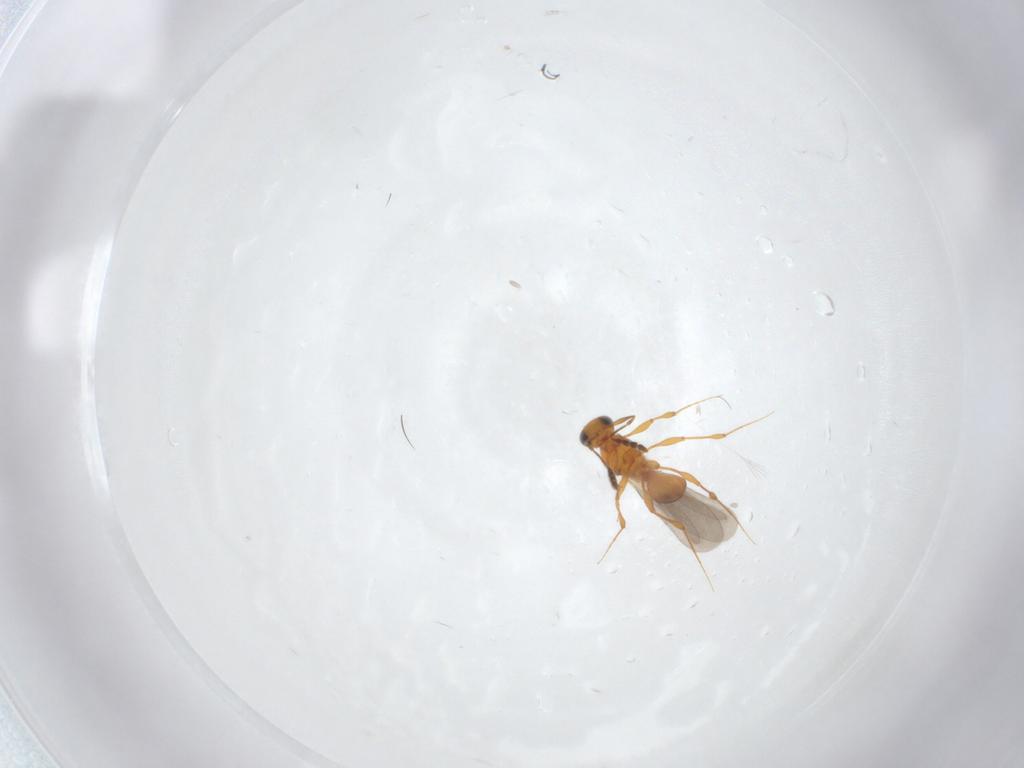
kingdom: Animalia
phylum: Arthropoda
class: Insecta
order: Hymenoptera
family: Platygastridae
